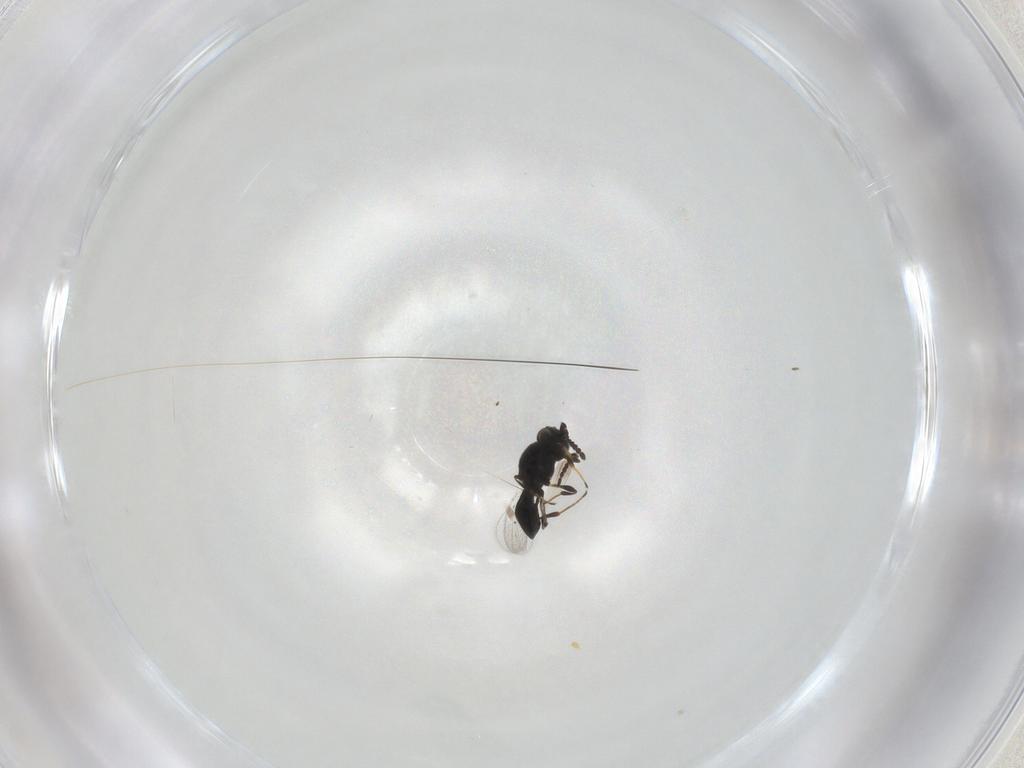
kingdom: Animalia
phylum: Arthropoda
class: Insecta
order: Hymenoptera
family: Platygastridae
